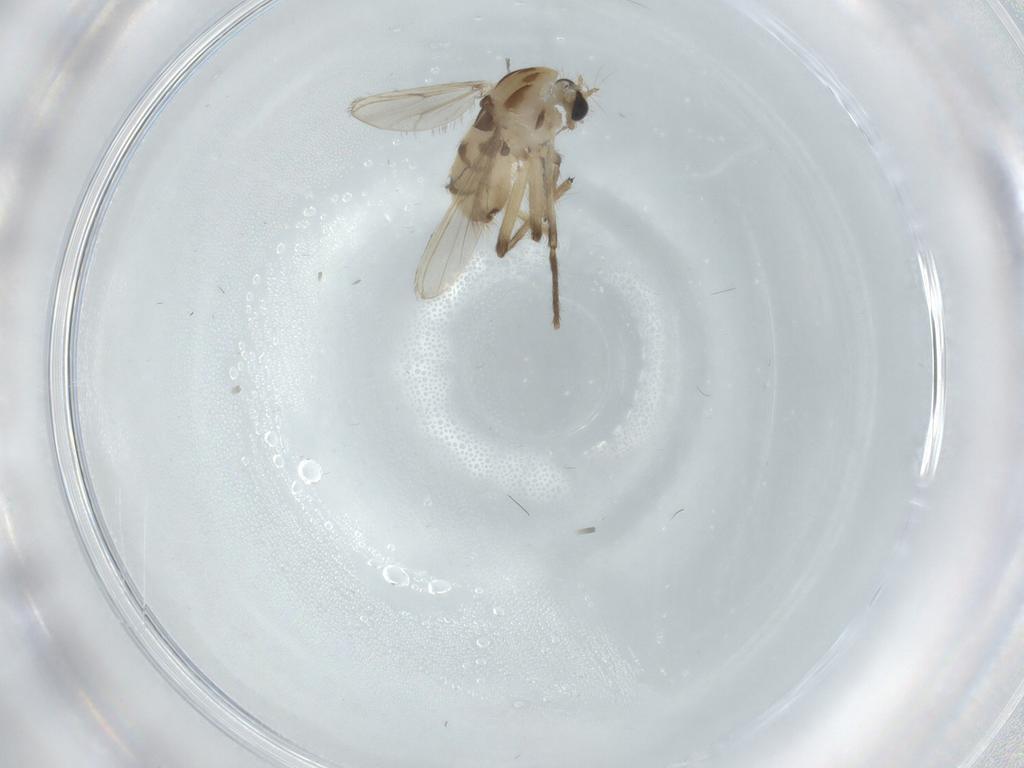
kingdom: Animalia
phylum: Arthropoda
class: Insecta
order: Diptera
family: Chironomidae
